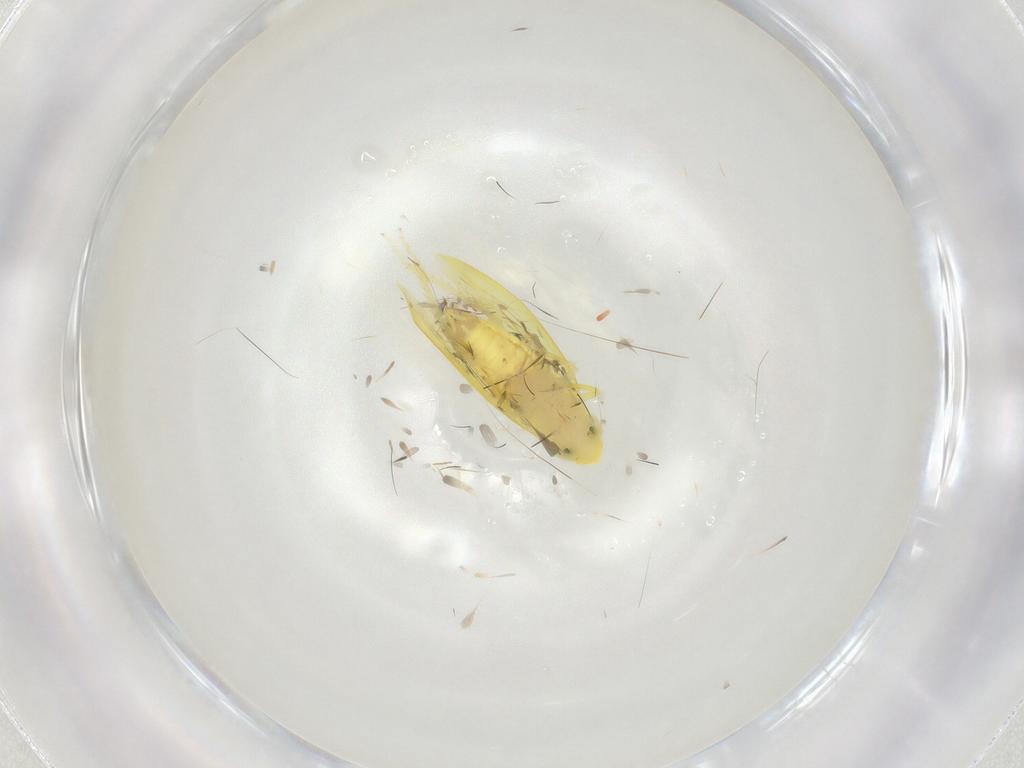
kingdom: Animalia
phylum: Arthropoda
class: Insecta
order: Hemiptera
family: Cicadellidae
